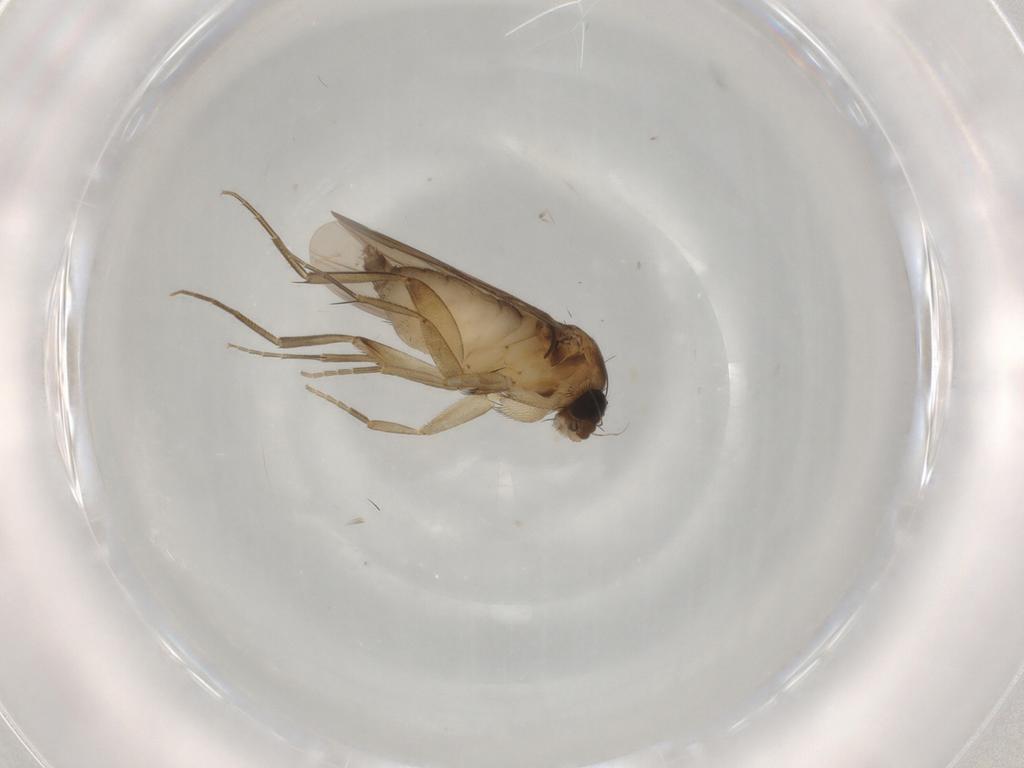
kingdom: Animalia
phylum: Arthropoda
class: Insecta
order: Diptera
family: Phoridae
